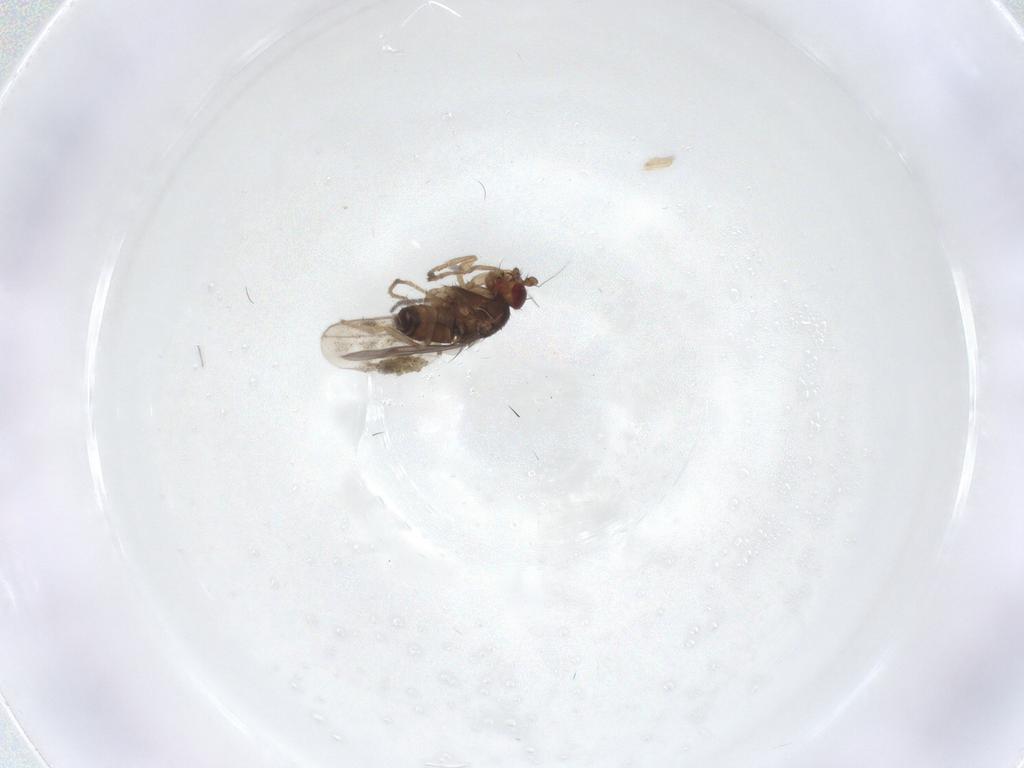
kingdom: Animalia
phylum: Arthropoda
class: Insecta
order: Diptera
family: Sphaeroceridae
